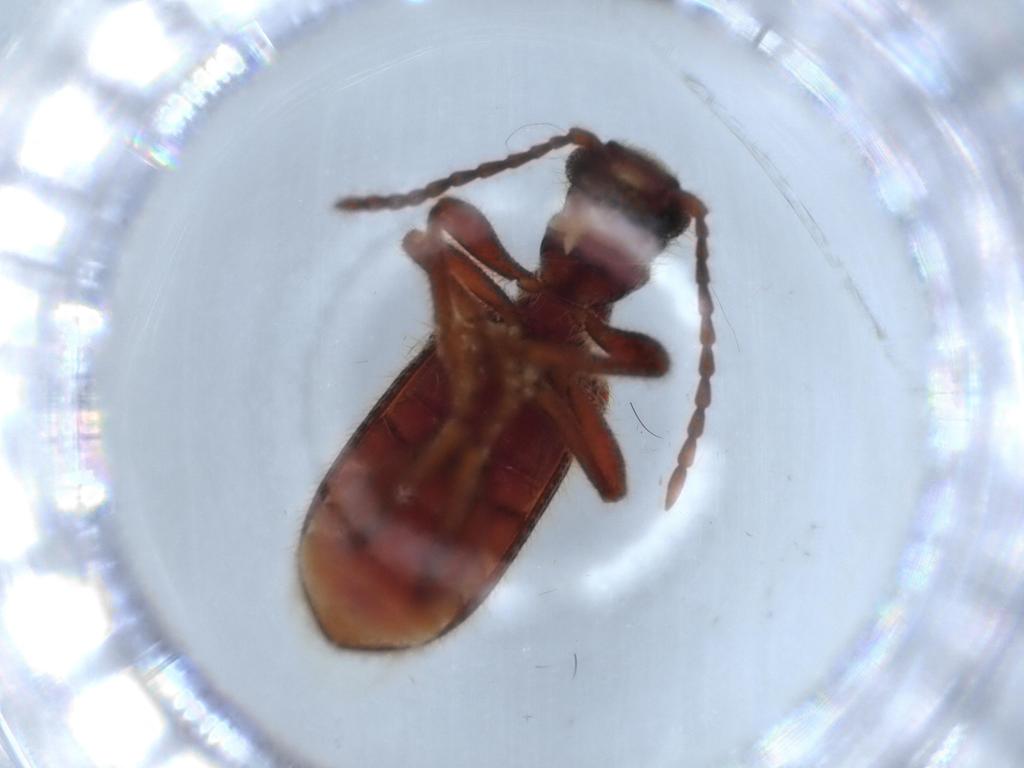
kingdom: Animalia
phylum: Arthropoda
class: Insecta
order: Coleoptera
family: Chrysomelidae
